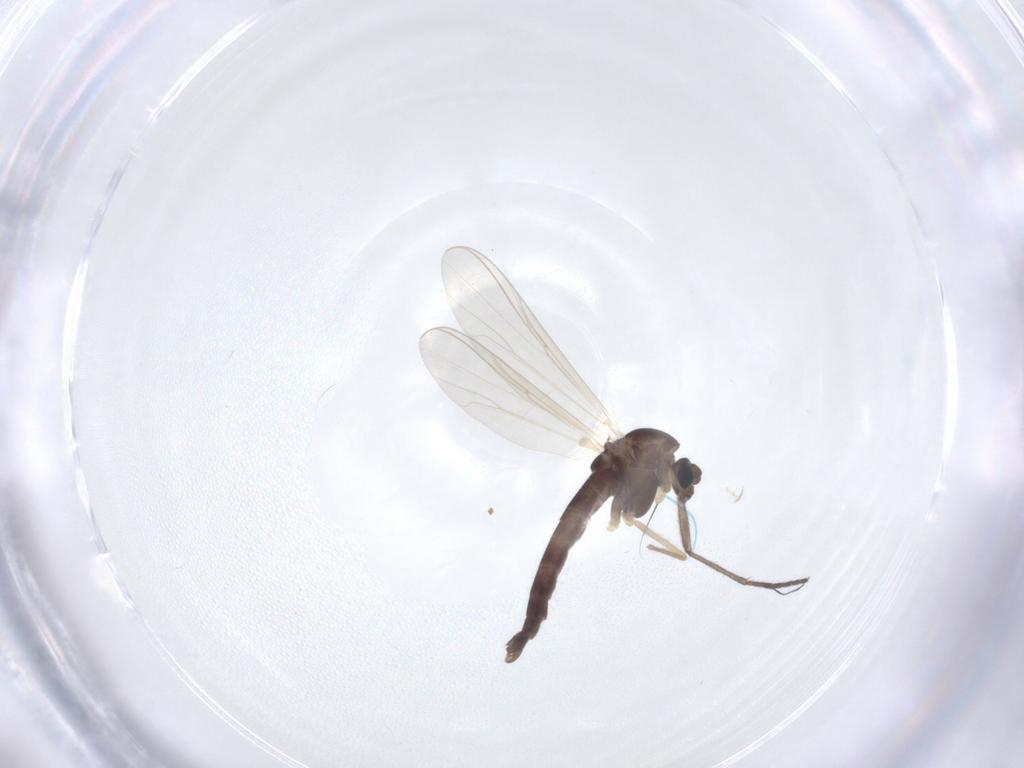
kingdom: Animalia
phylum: Arthropoda
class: Insecta
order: Diptera
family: Chironomidae
